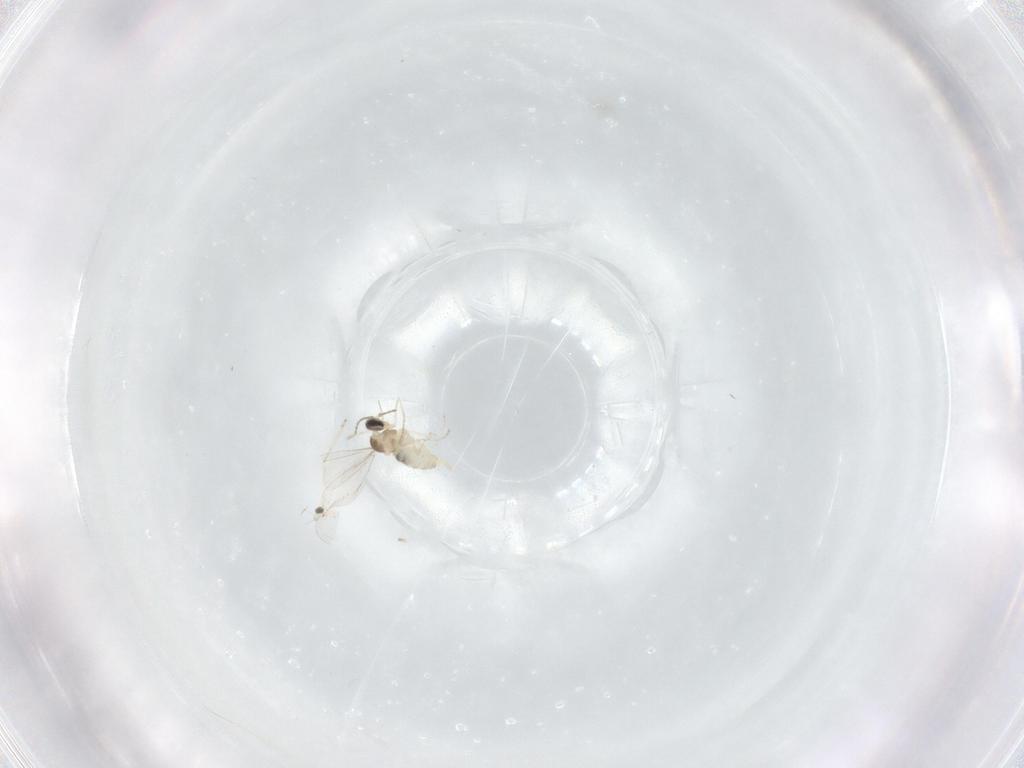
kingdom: Animalia
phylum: Arthropoda
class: Insecta
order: Diptera
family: Cecidomyiidae
